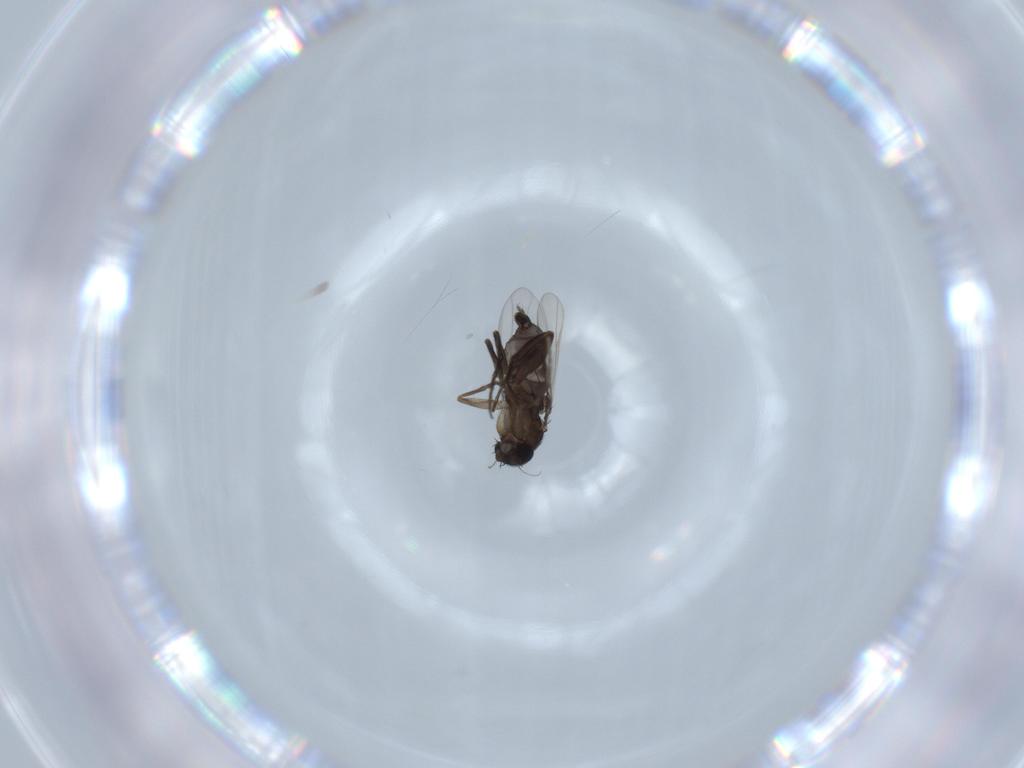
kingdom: Animalia
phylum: Arthropoda
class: Insecta
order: Diptera
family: Phoridae
